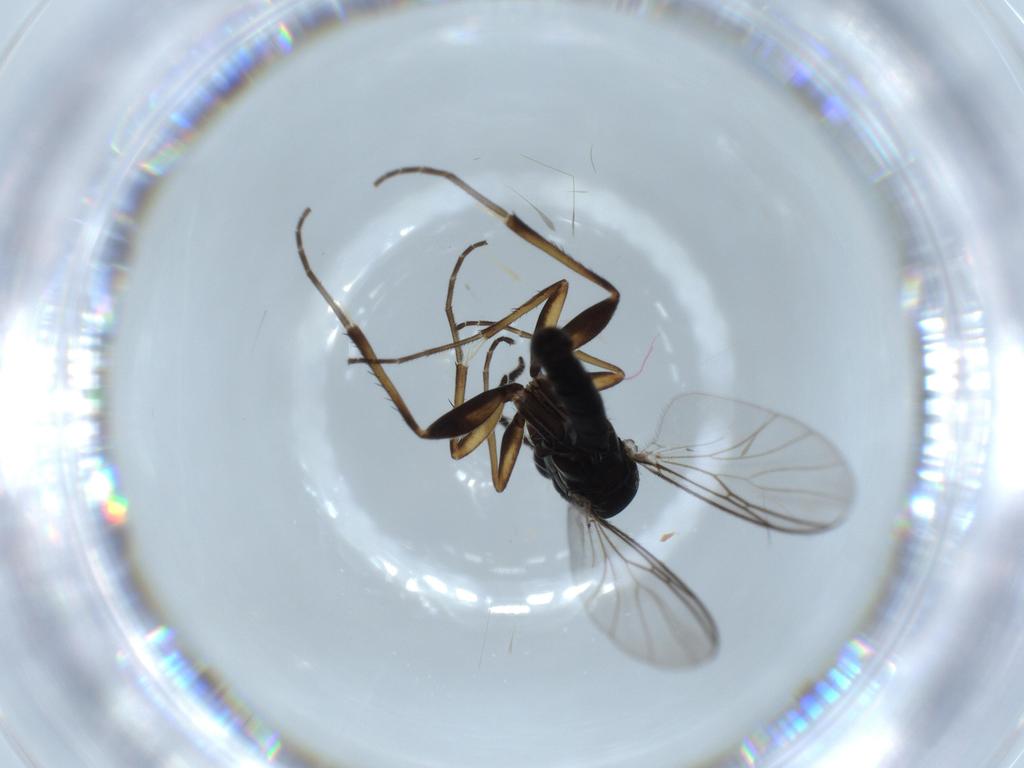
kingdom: Animalia
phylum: Arthropoda
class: Insecta
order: Diptera
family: Mycetophilidae
